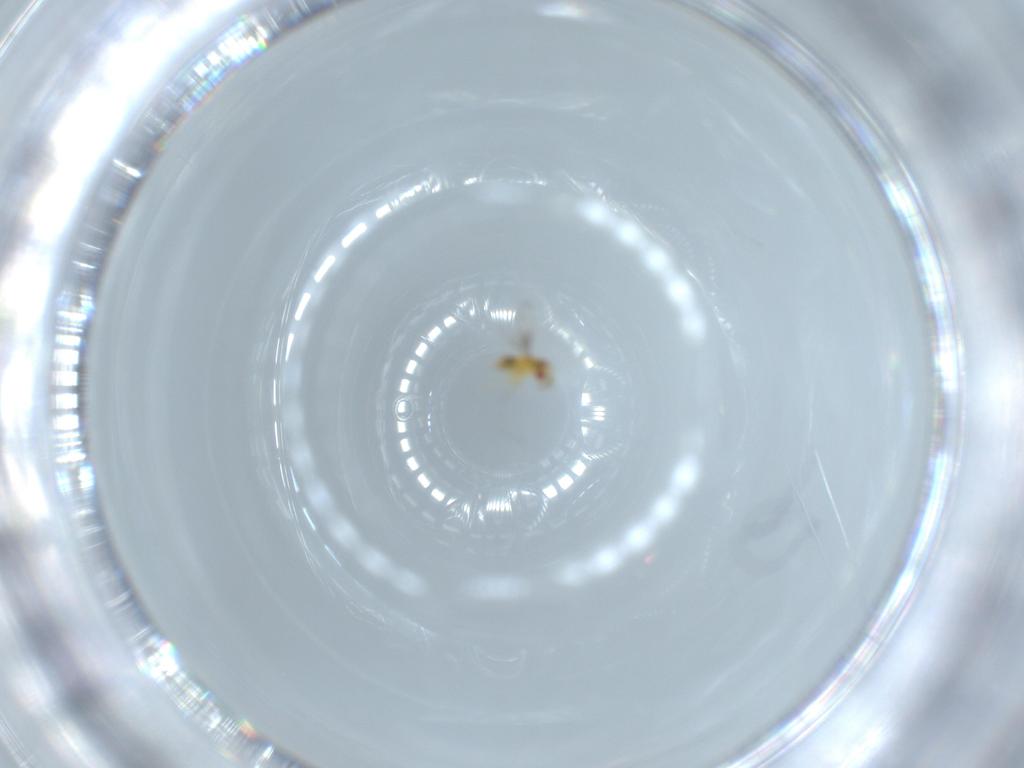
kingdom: Animalia
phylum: Arthropoda
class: Insecta
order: Hymenoptera
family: Trichogrammatidae
